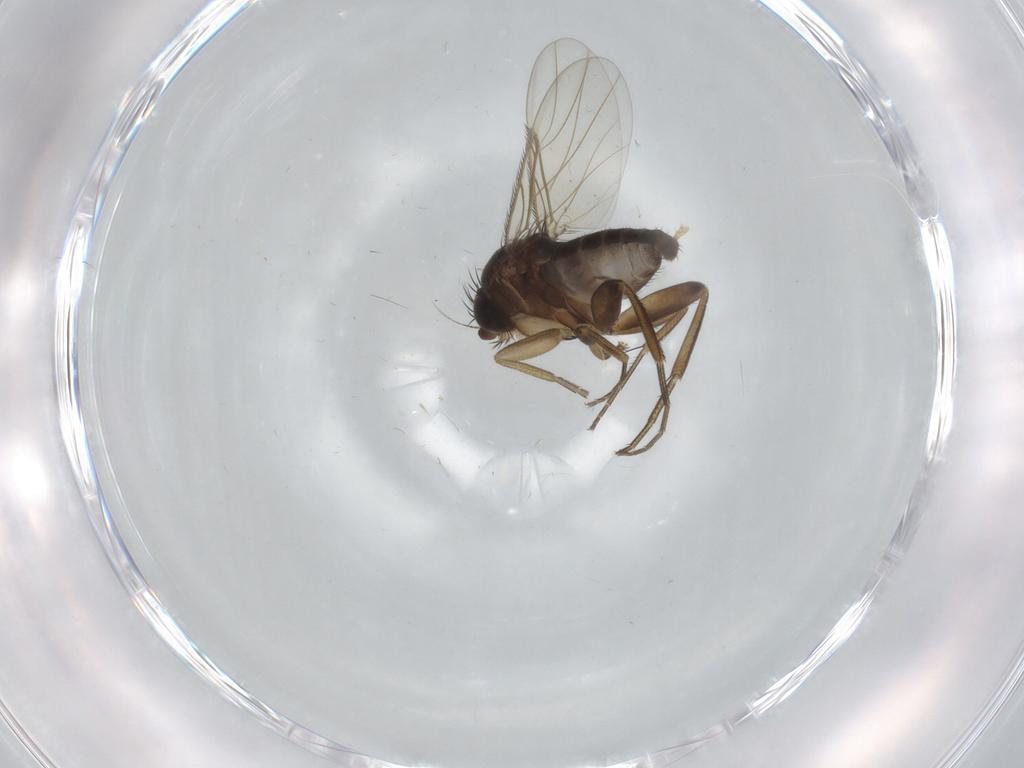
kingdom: Animalia
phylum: Arthropoda
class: Insecta
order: Diptera
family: Phoridae
